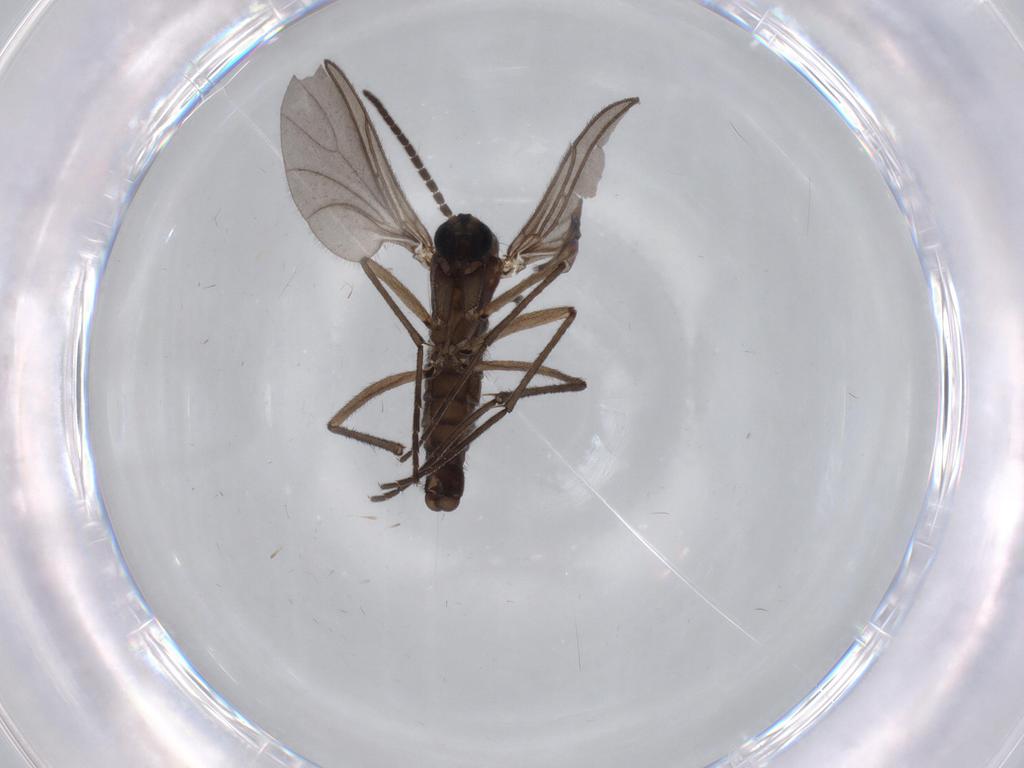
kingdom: Animalia
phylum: Arthropoda
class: Insecta
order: Diptera
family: Sciaridae
